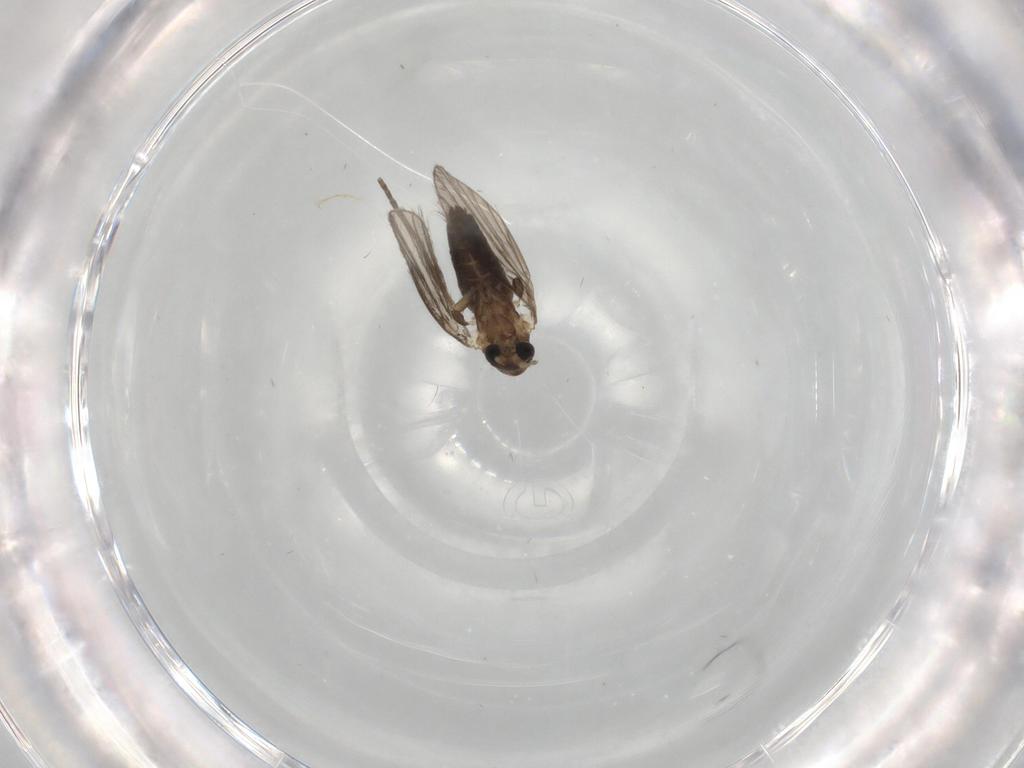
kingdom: Animalia
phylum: Arthropoda
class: Insecta
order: Diptera
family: Psychodidae
